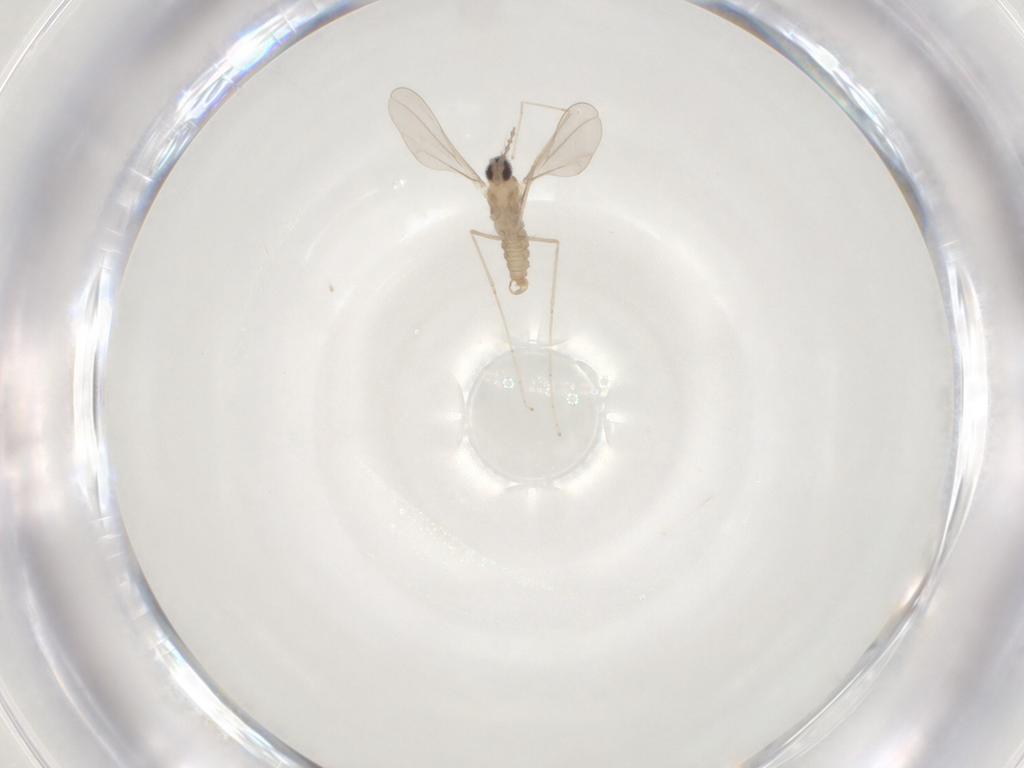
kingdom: Animalia
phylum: Arthropoda
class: Insecta
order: Diptera
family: Cecidomyiidae
